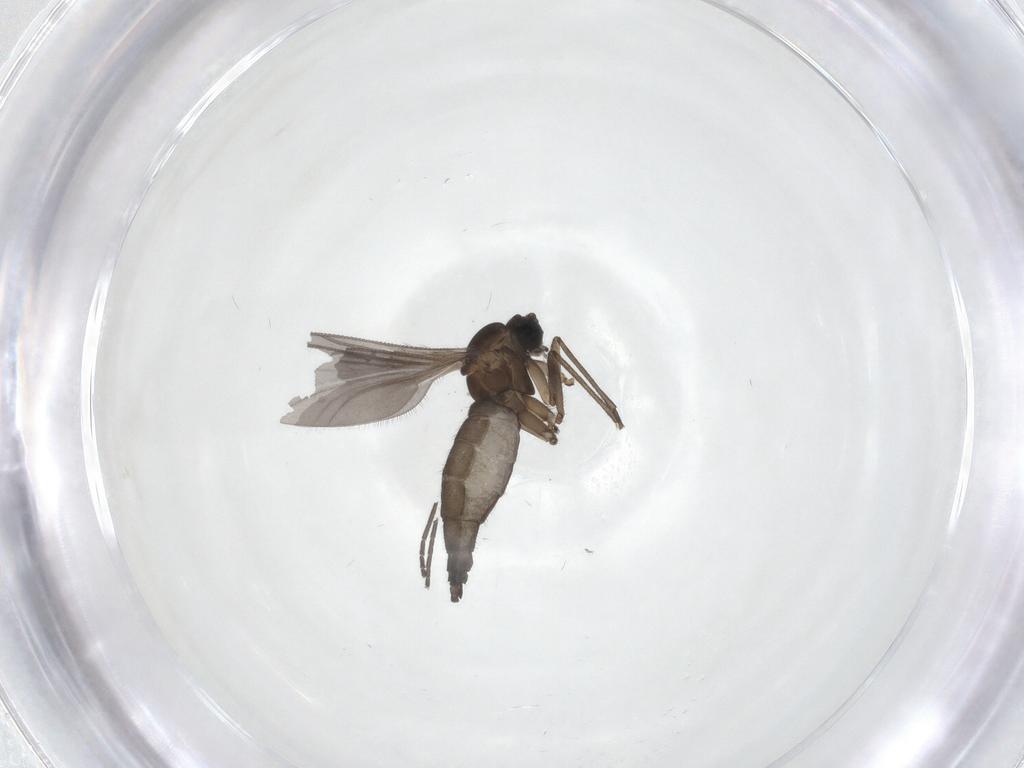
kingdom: Animalia
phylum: Arthropoda
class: Insecta
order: Diptera
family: Sciaridae
